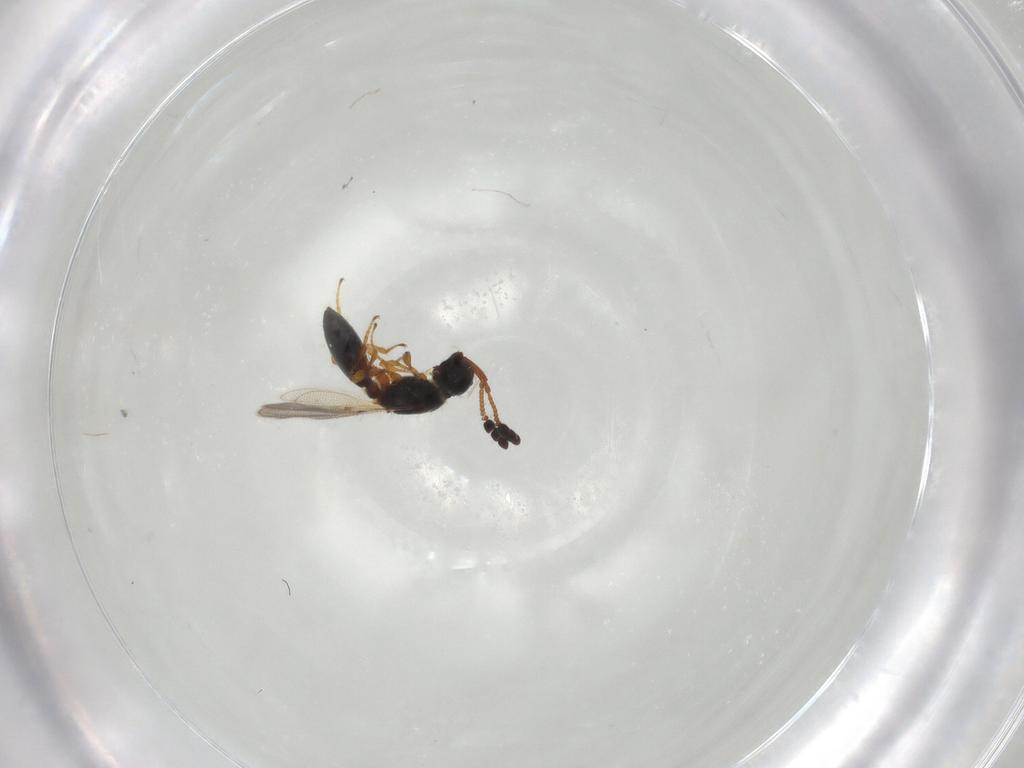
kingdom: Animalia
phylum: Arthropoda
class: Insecta
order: Hymenoptera
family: Diapriidae
